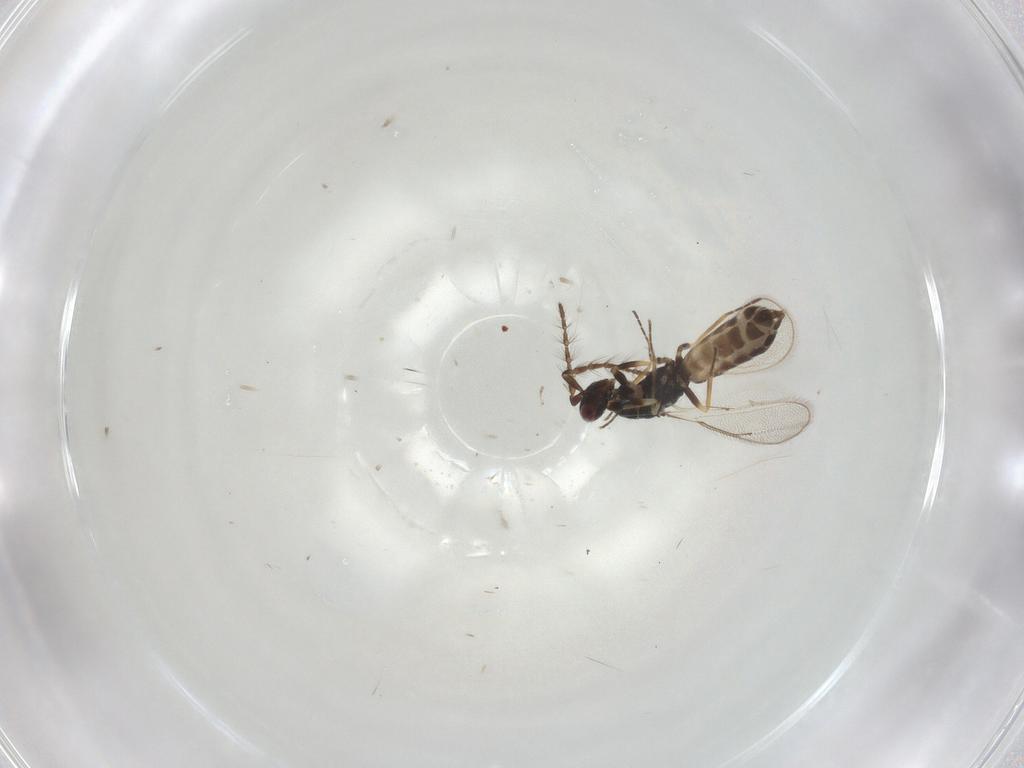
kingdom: Animalia
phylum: Arthropoda
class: Insecta
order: Hymenoptera
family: Eulophidae
